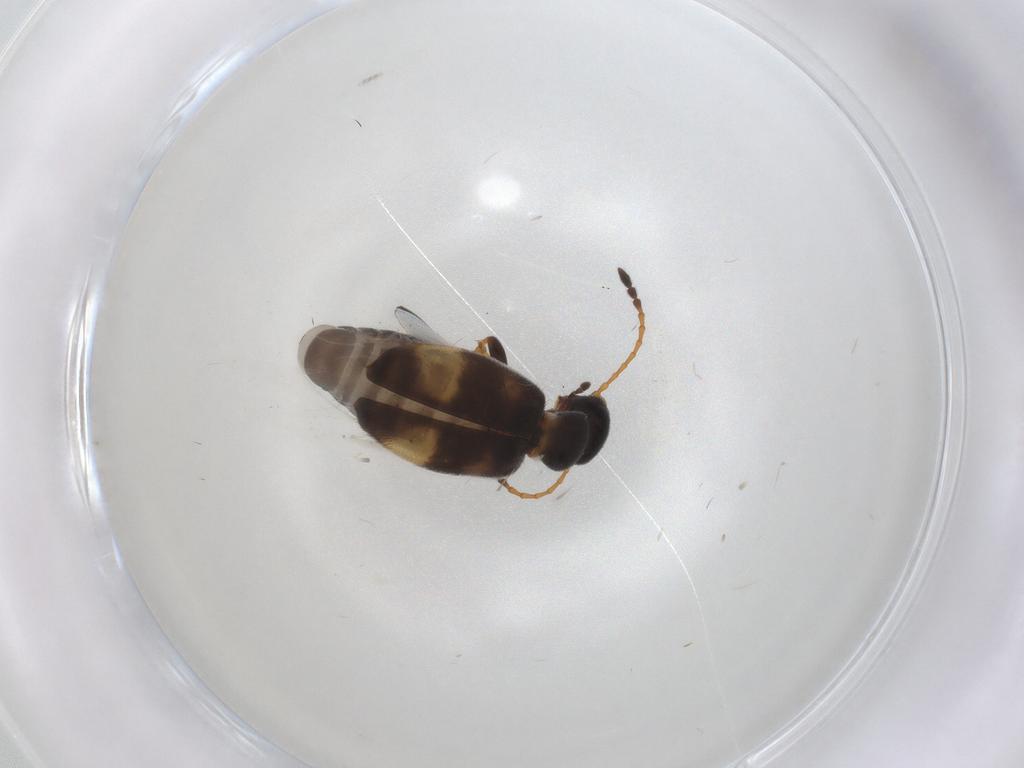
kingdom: Animalia
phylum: Arthropoda
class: Insecta
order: Coleoptera
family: Anthicidae
